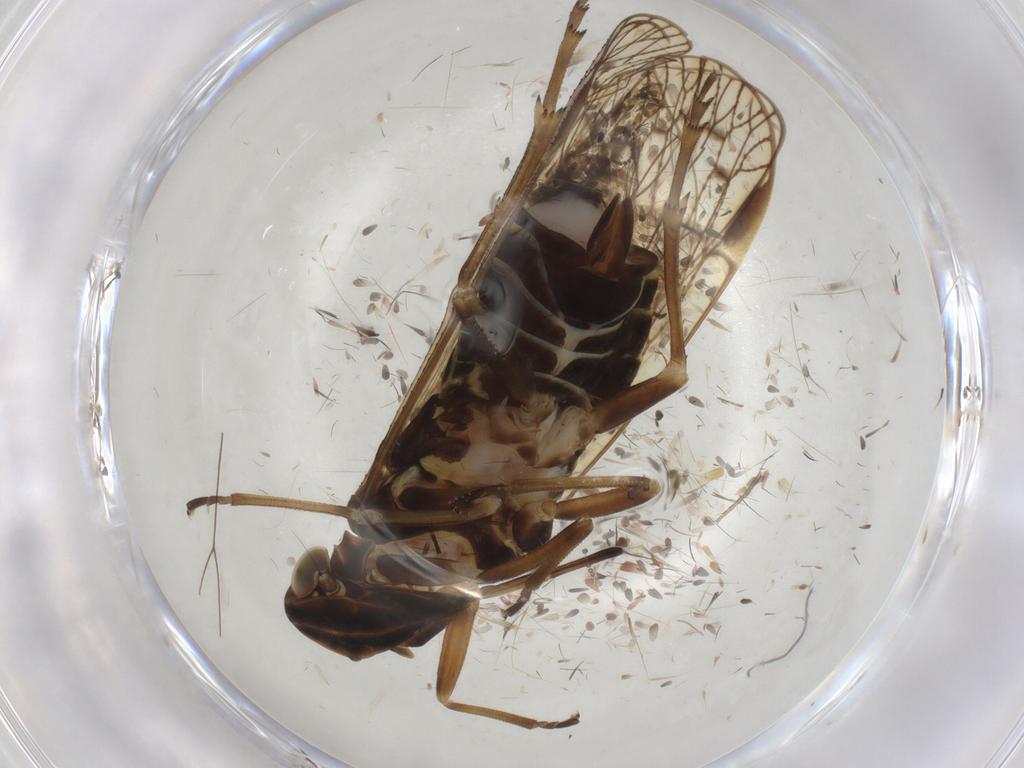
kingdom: Animalia
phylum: Arthropoda
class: Insecta
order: Hemiptera
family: Cixiidae
